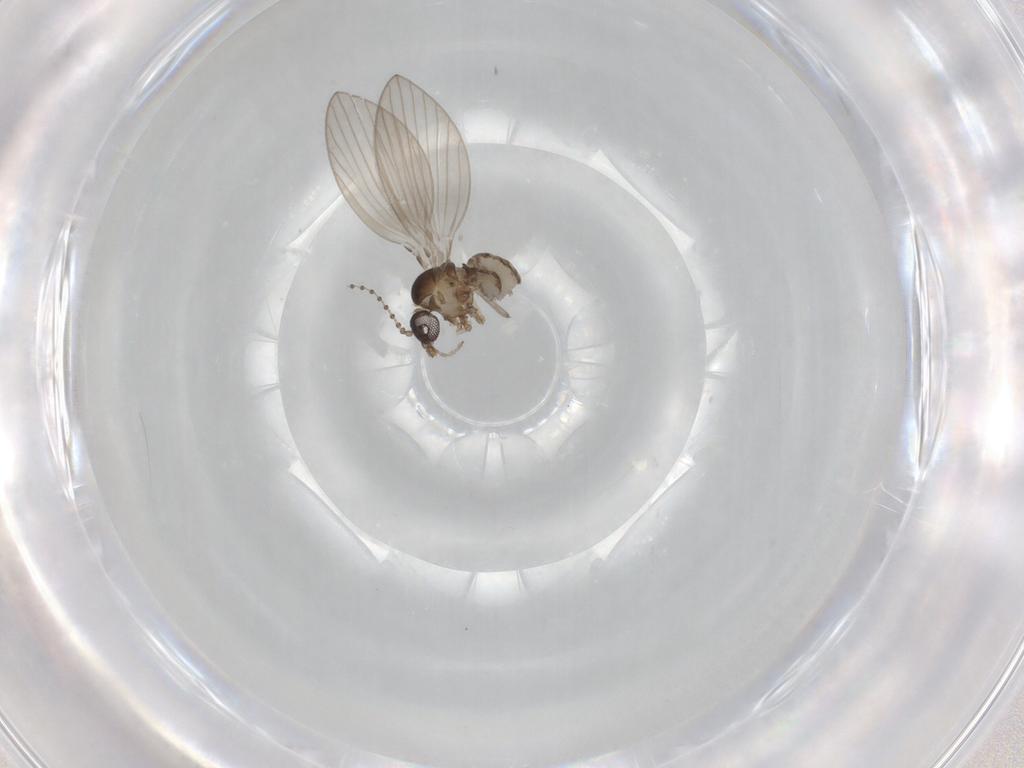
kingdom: Animalia
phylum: Arthropoda
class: Insecta
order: Diptera
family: Psychodidae
